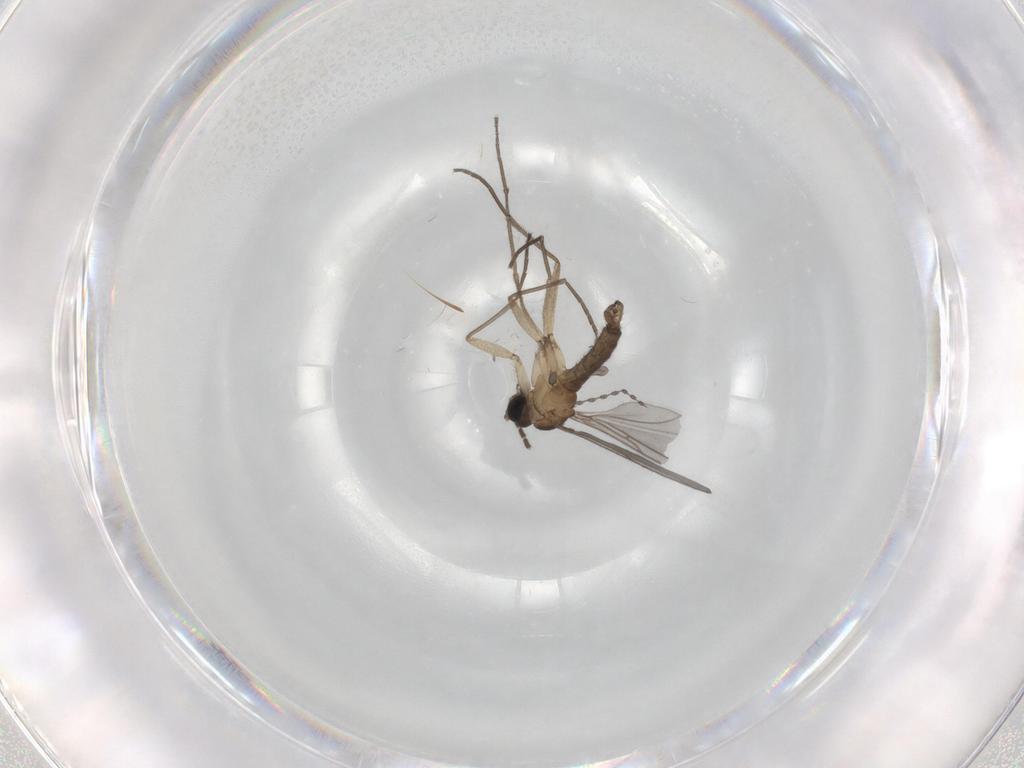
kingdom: Animalia
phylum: Arthropoda
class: Insecta
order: Diptera
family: Sciaridae
